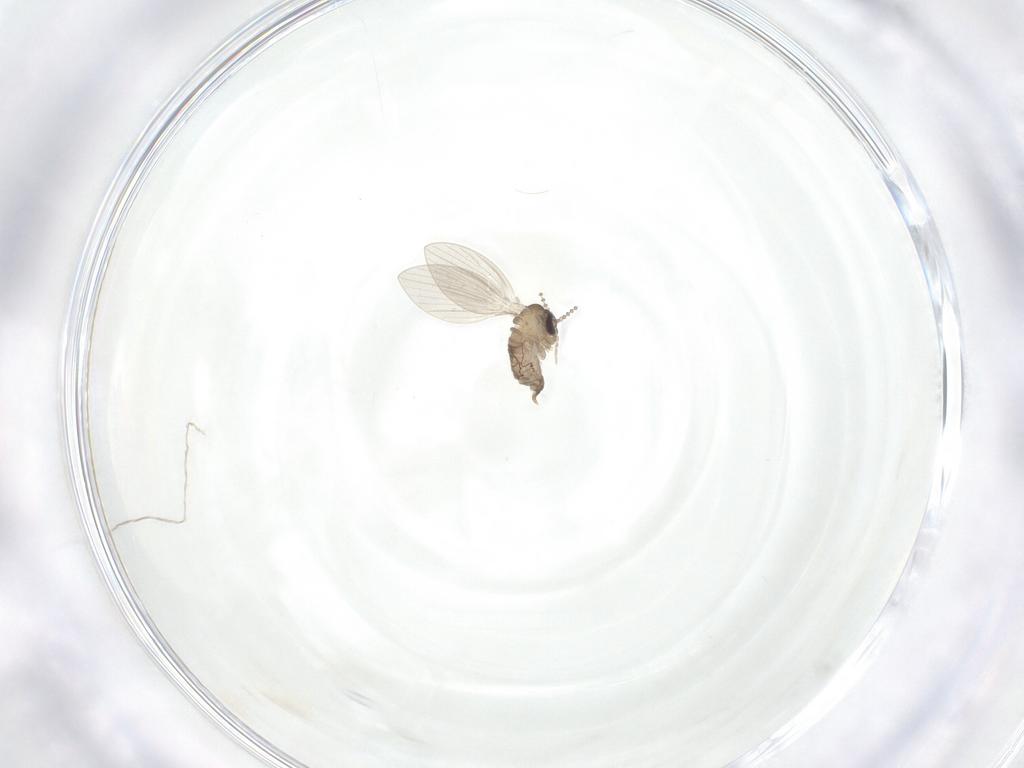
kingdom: Animalia
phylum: Arthropoda
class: Insecta
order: Diptera
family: Psychodidae
